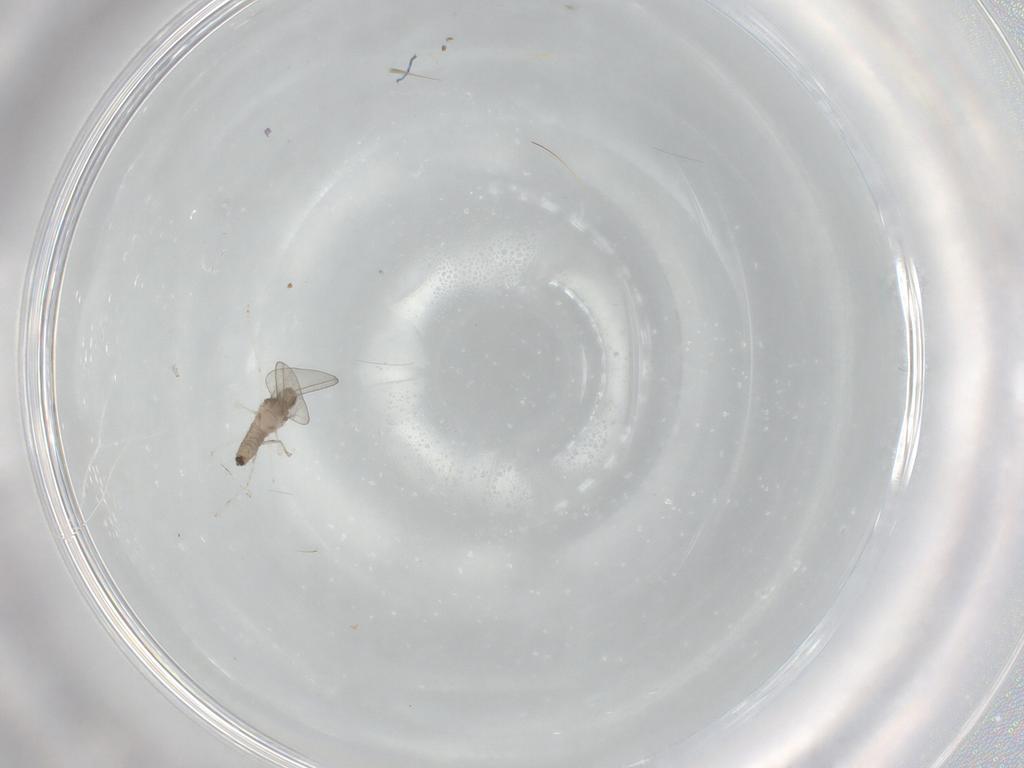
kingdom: Animalia
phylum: Arthropoda
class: Insecta
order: Diptera
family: Cecidomyiidae
